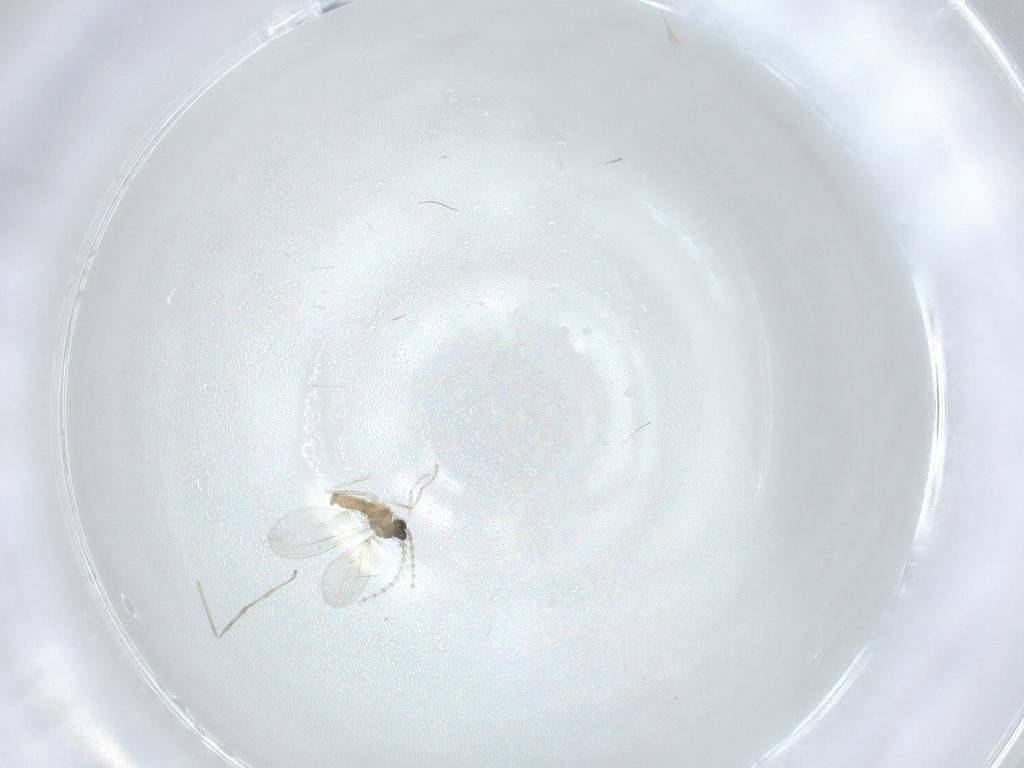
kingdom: Animalia
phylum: Arthropoda
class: Insecta
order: Diptera
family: Cecidomyiidae
